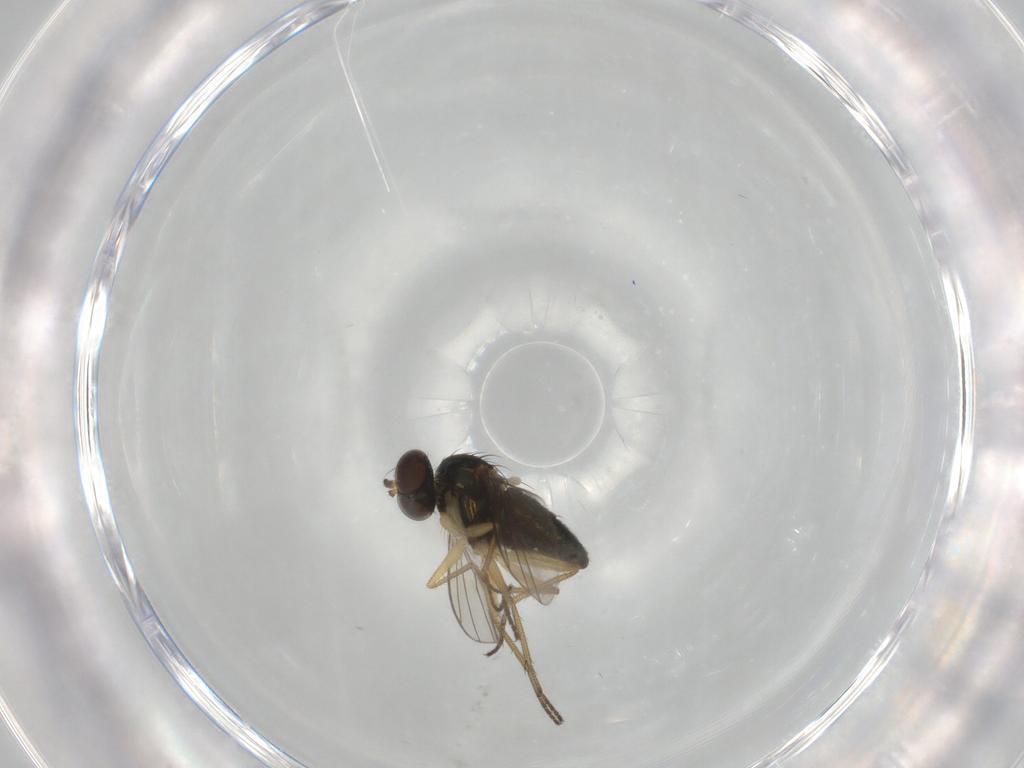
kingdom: Animalia
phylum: Arthropoda
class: Insecta
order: Diptera
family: Dolichopodidae
